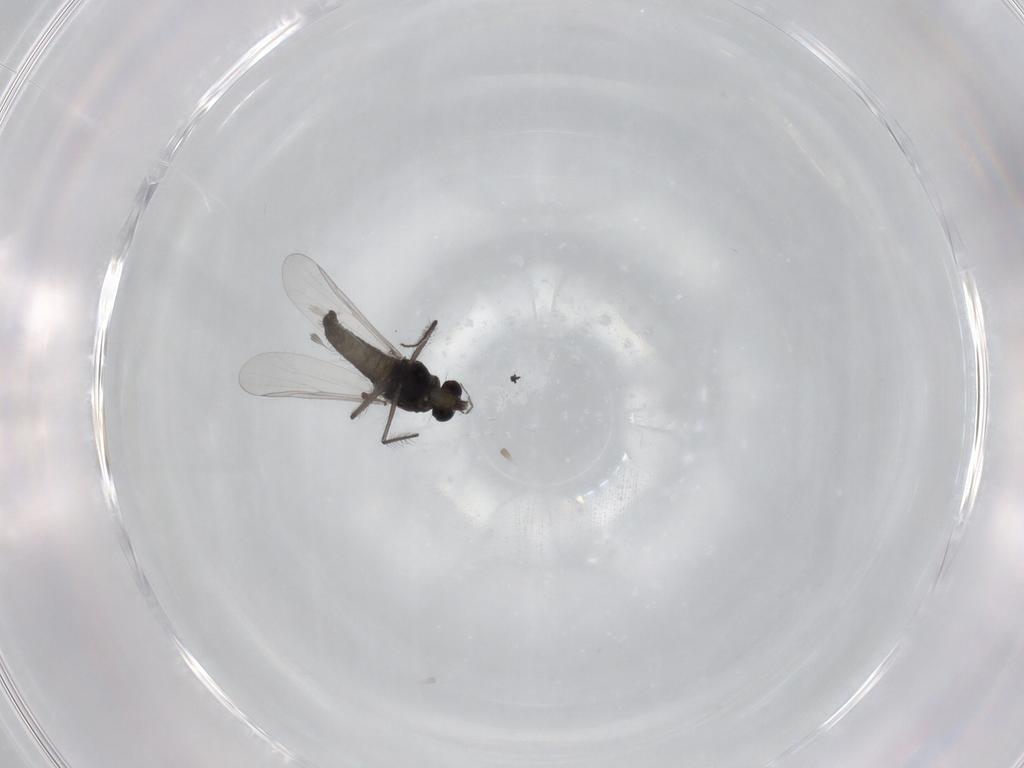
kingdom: Animalia
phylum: Arthropoda
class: Insecta
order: Diptera
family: Chironomidae
